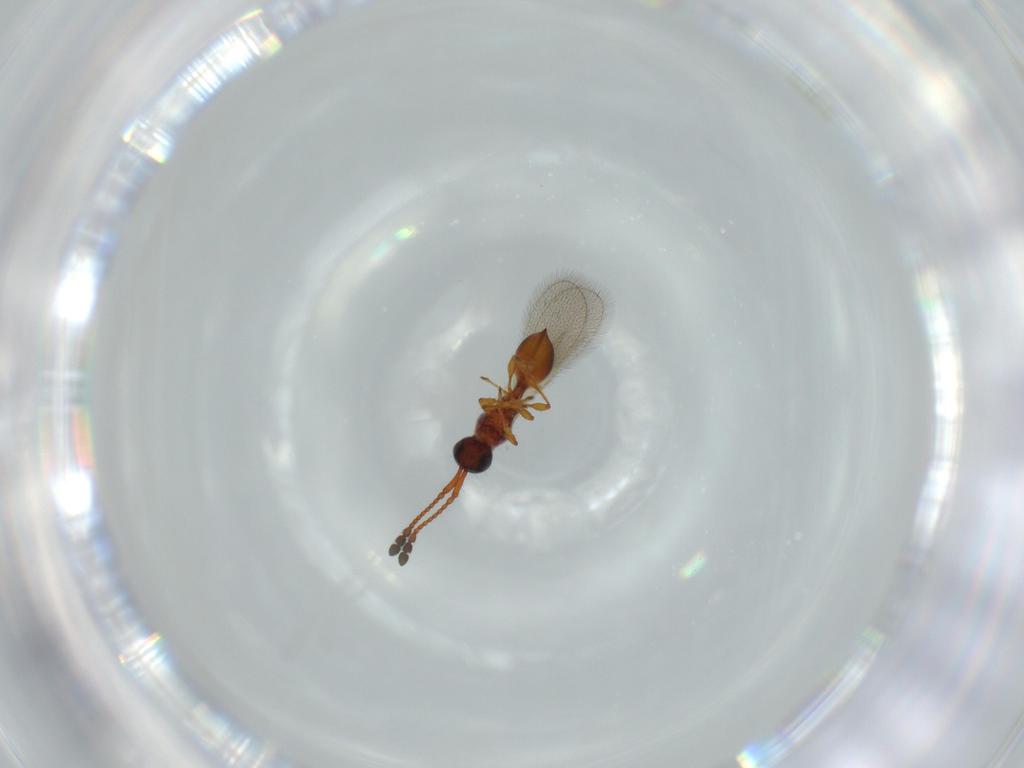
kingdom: Animalia
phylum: Arthropoda
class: Insecta
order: Hymenoptera
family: Diapriidae
